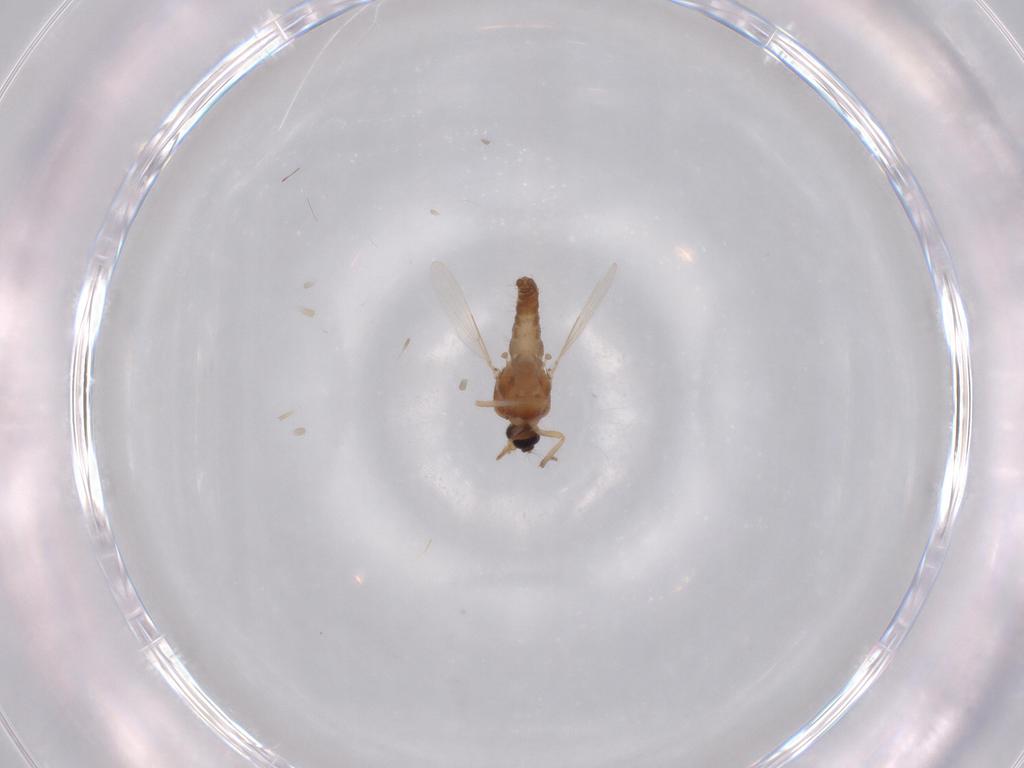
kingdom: Animalia
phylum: Arthropoda
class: Insecta
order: Diptera
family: Ceratopogonidae
